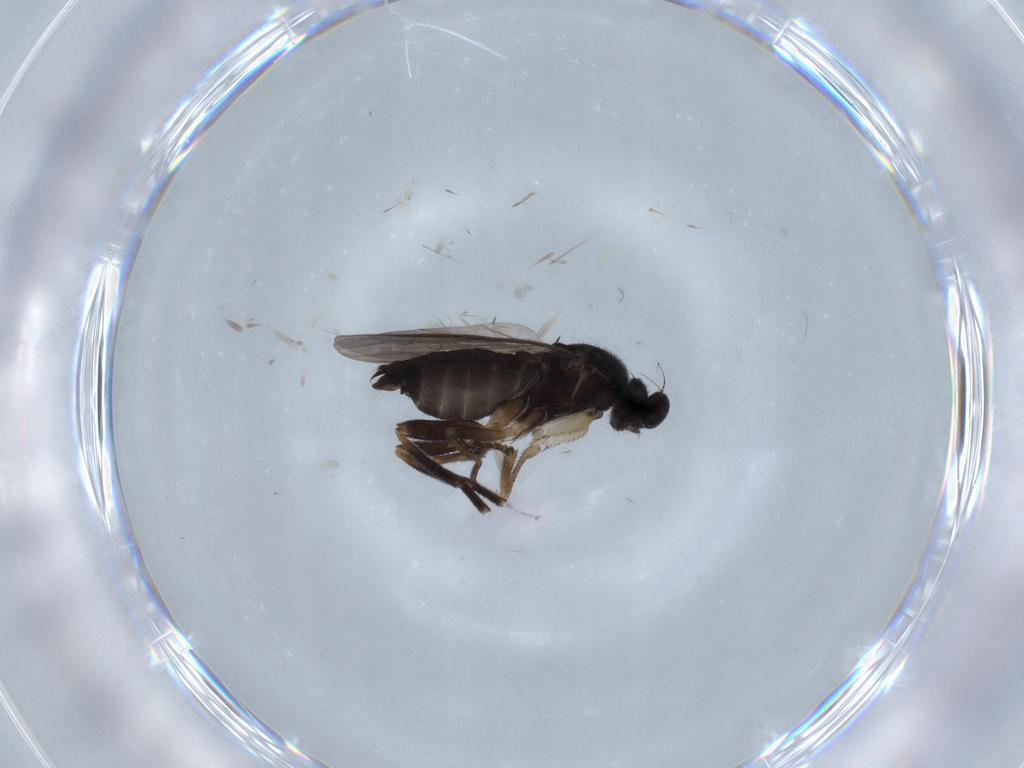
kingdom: Animalia
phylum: Arthropoda
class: Insecta
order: Diptera
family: Phoridae
